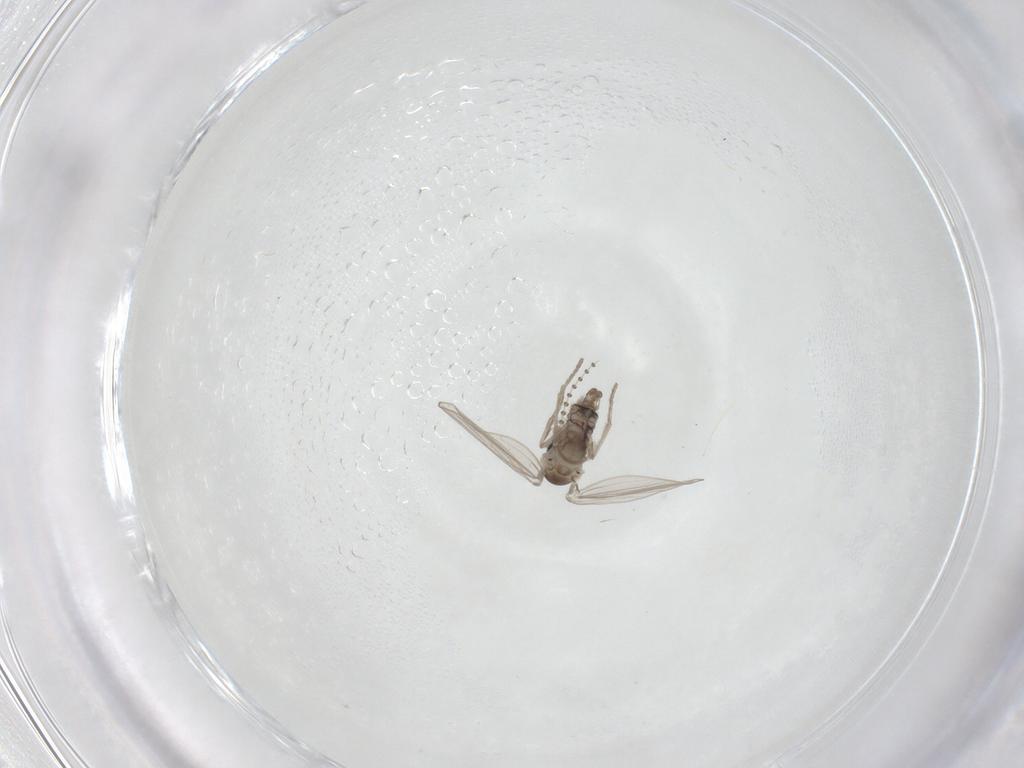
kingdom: Animalia
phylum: Arthropoda
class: Insecta
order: Diptera
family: Psychodidae
